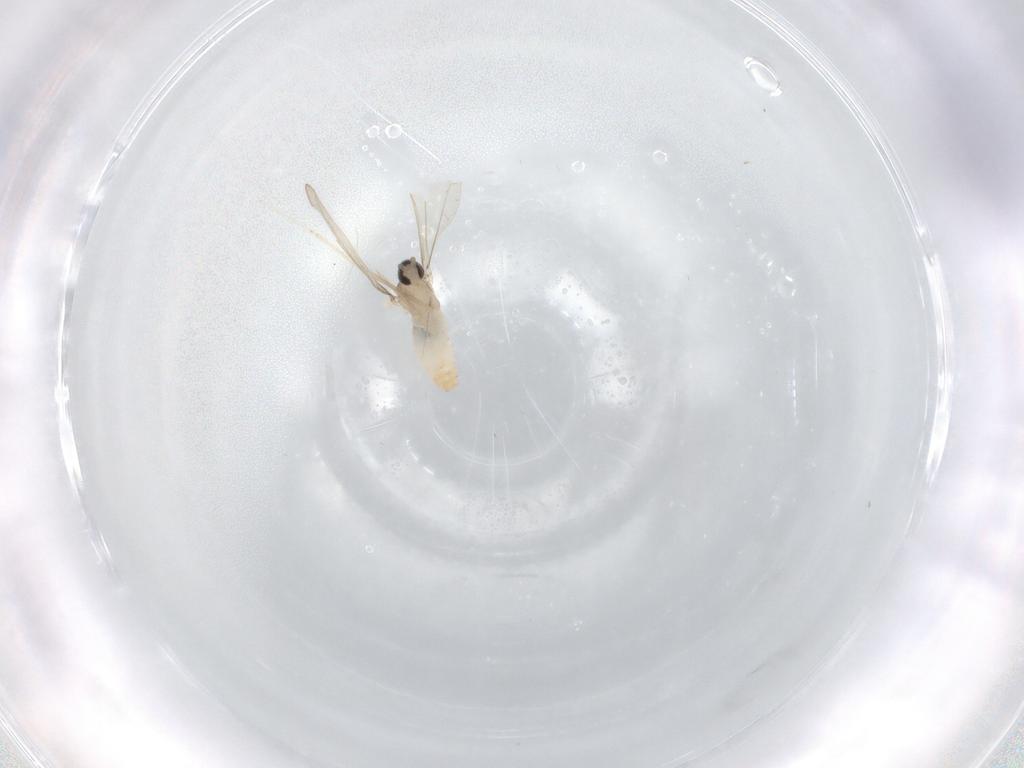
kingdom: Animalia
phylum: Arthropoda
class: Insecta
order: Diptera
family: Cecidomyiidae
